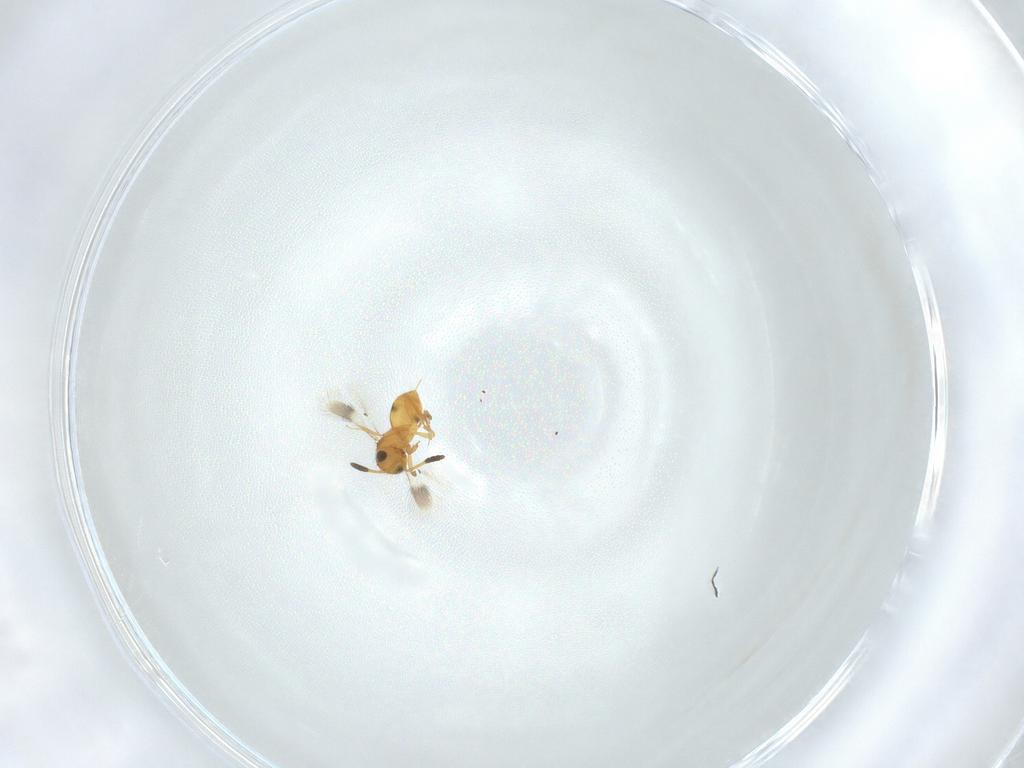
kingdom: Animalia
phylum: Arthropoda
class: Insecta
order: Hymenoptera
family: Scelionidae
